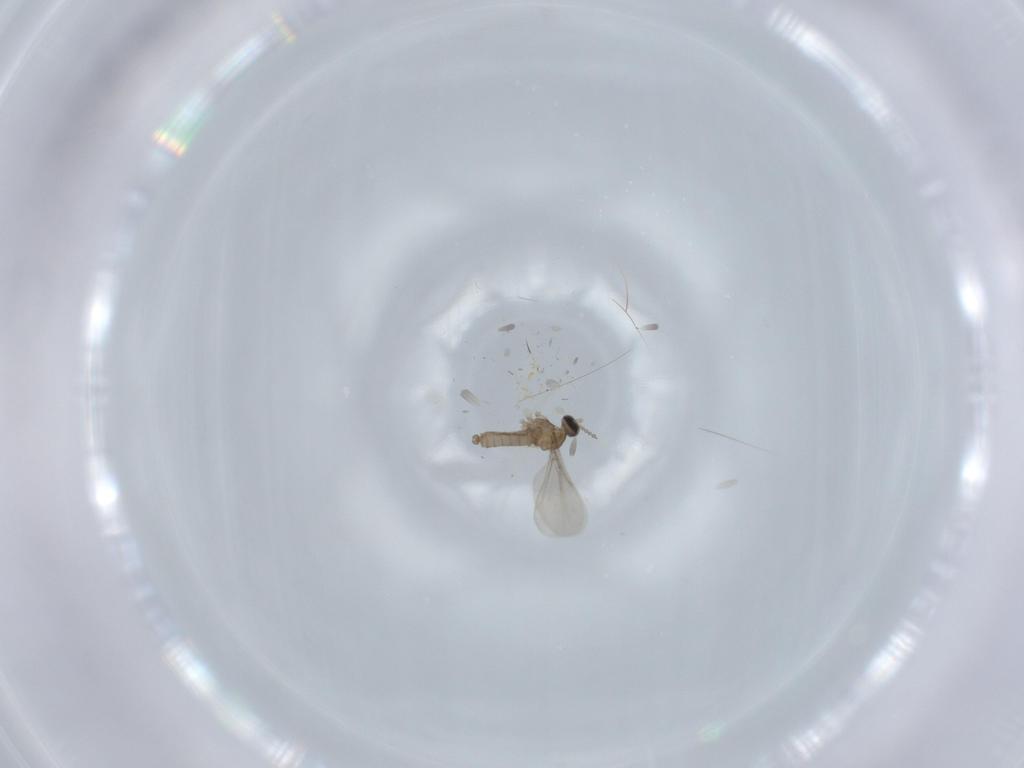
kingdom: Animalia
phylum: Arthropoda
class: Insecta
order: Diptera
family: Cecidomyiidae
